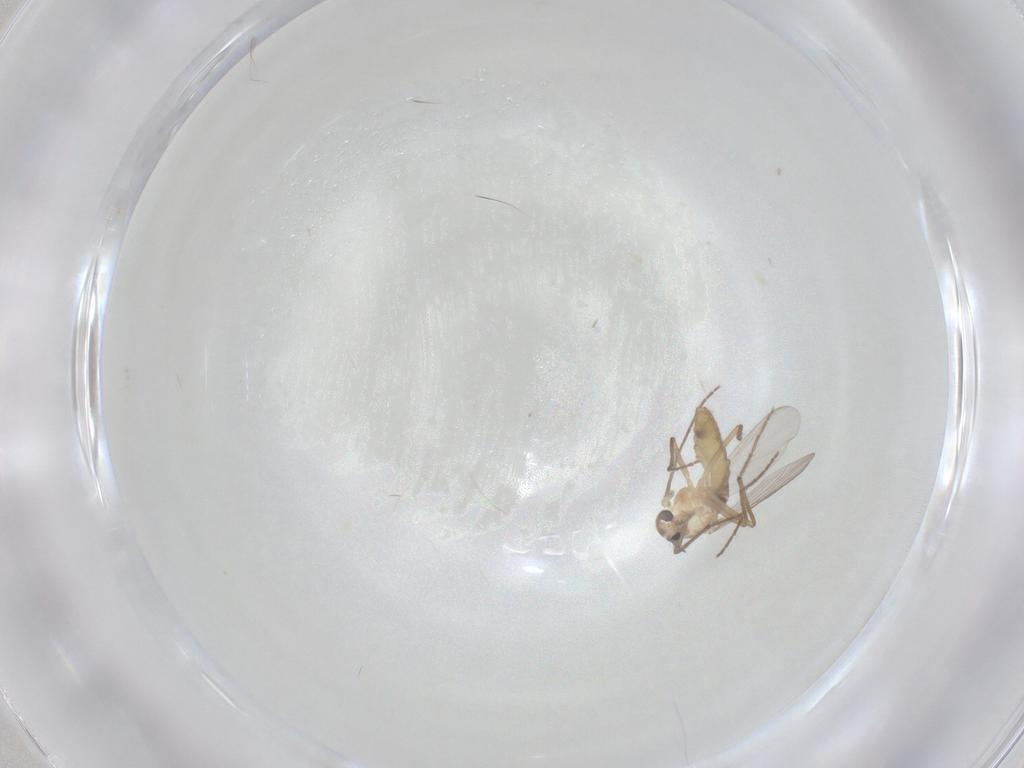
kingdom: Animalia
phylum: Arthropoda
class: Insecta
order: Diptera
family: Chironomidae
